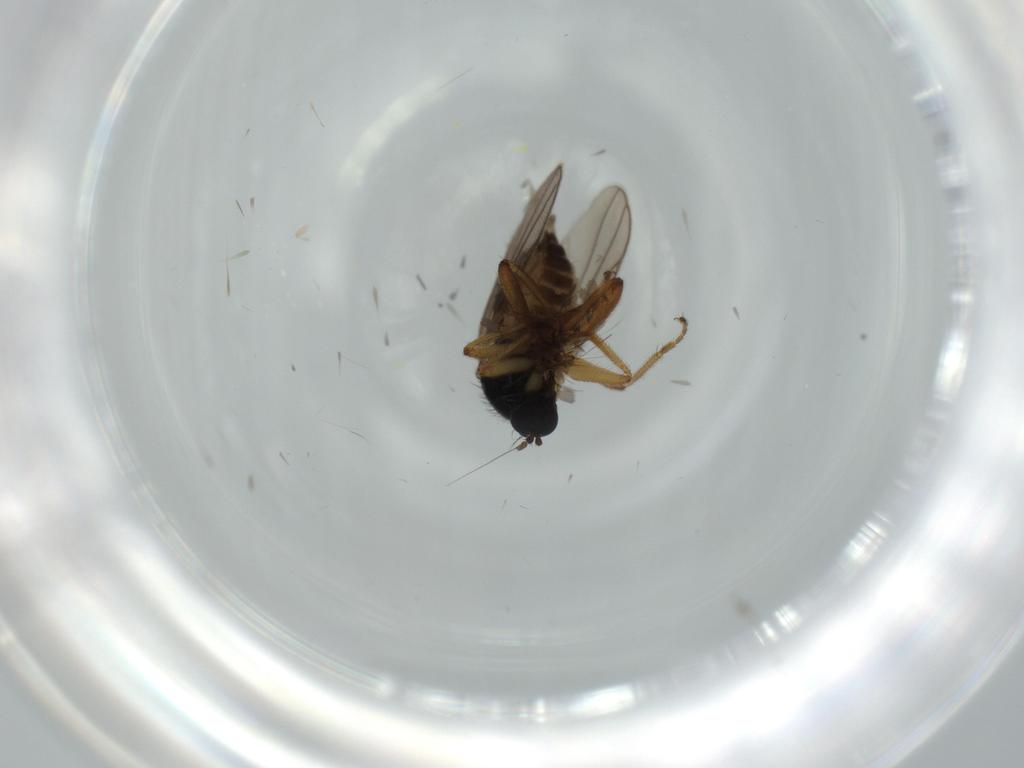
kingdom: Animalia
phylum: Arthropoda
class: Insecta
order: Diptera
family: Hybotidae
